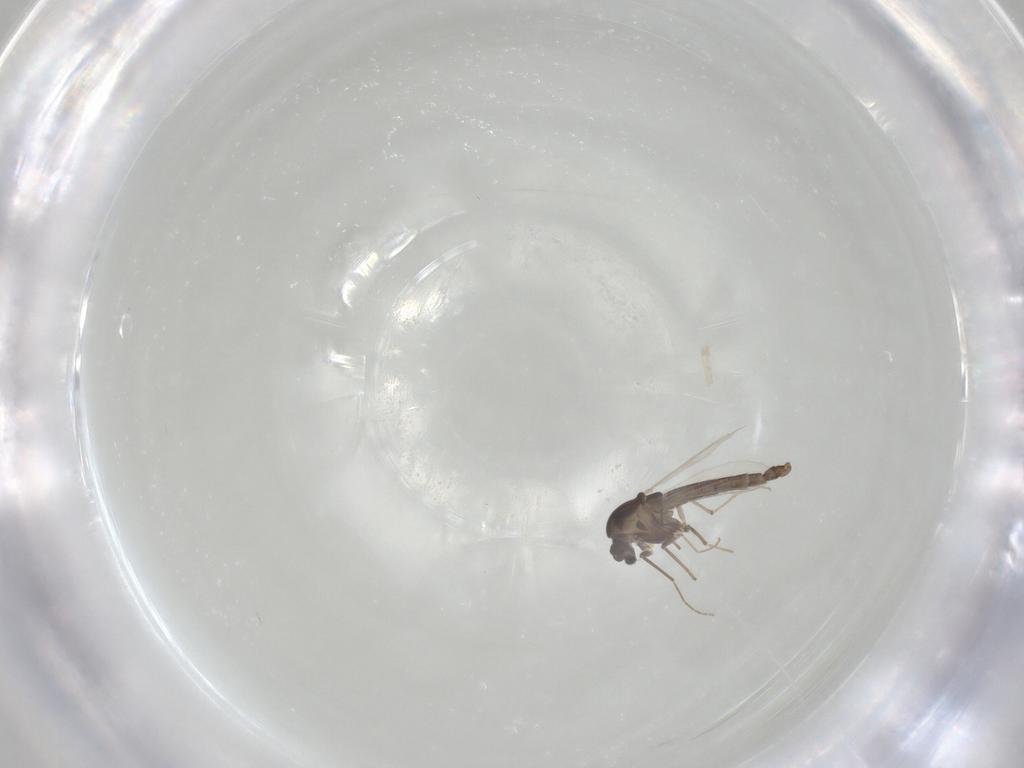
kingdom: Animalia
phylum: Arthropoda
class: Insecta
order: Diptera
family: Chironomidae
